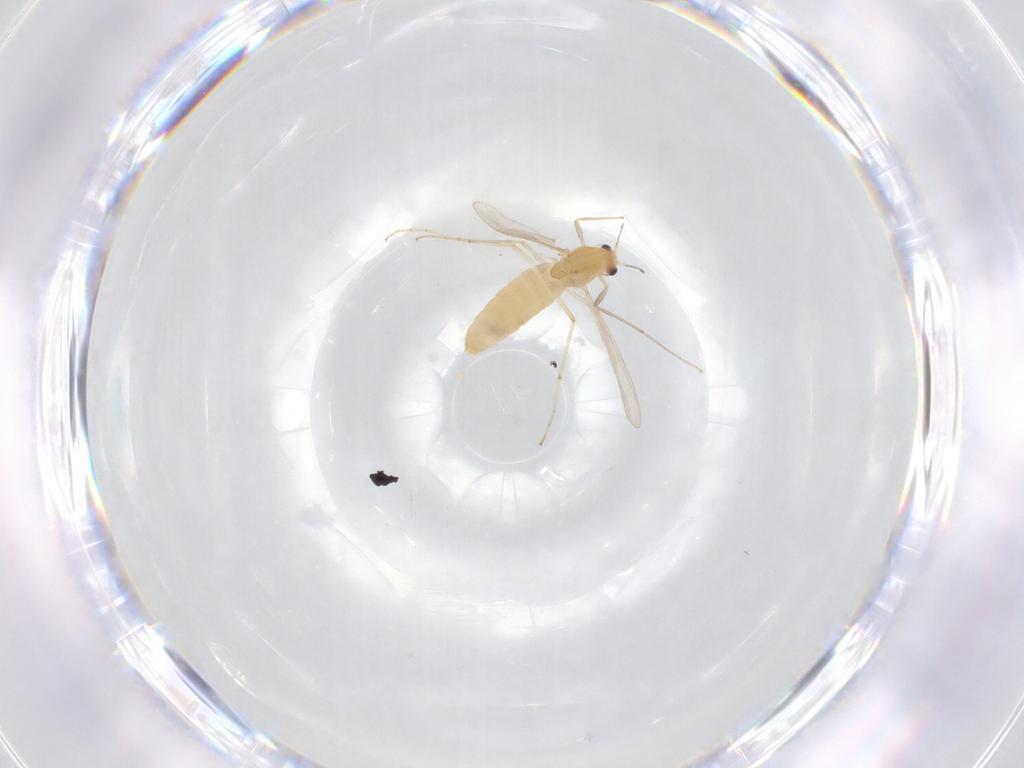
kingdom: Animalia
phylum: Arthropoda
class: Insecta
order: Diptera
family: Chironomidae
